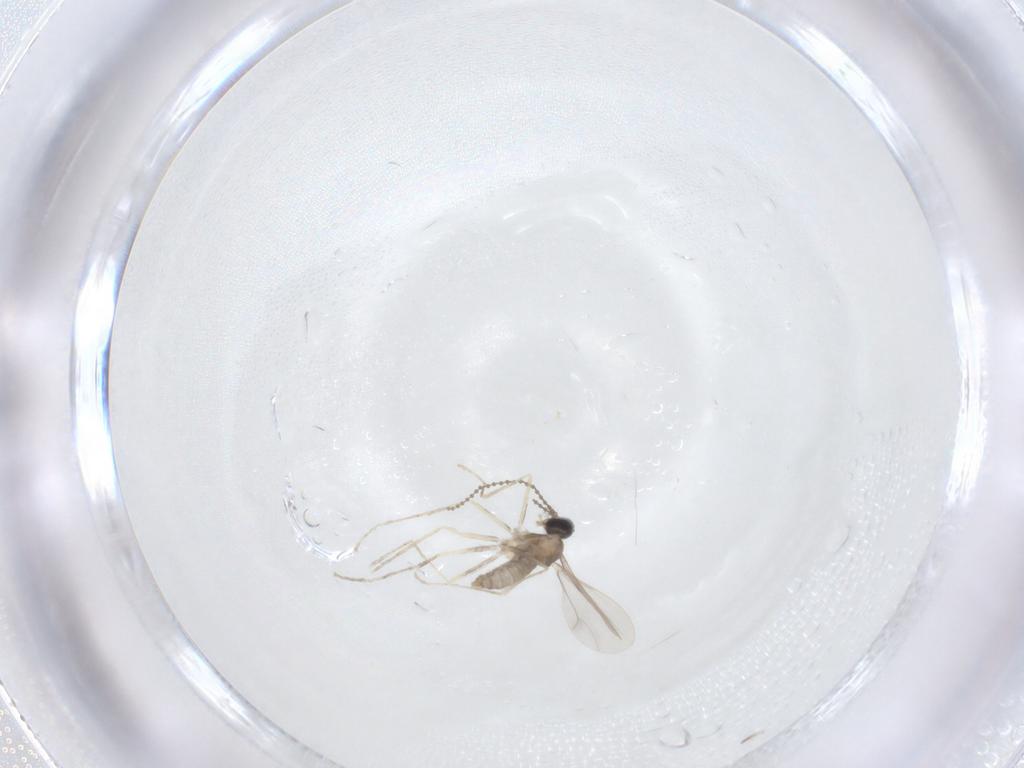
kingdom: Animalia
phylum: Arthropoda
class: Insecta
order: Diptera
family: Cecidomyiidae
